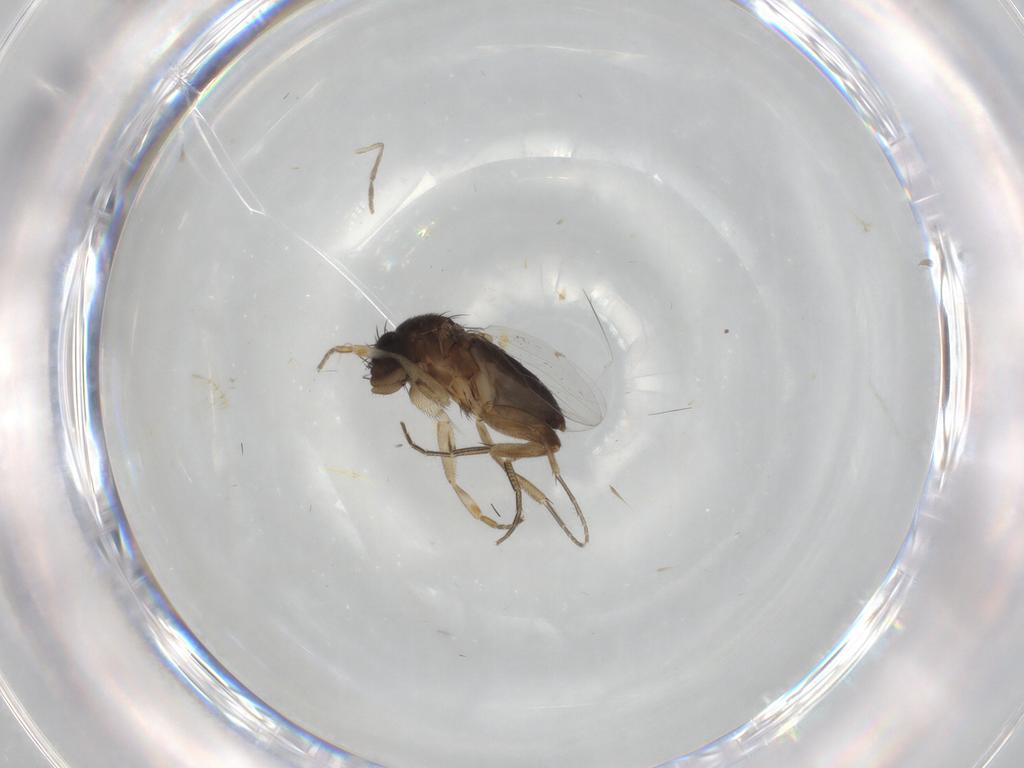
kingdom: Animalia
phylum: Arthropoda
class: Insecta
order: Diptera
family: Phoridae
